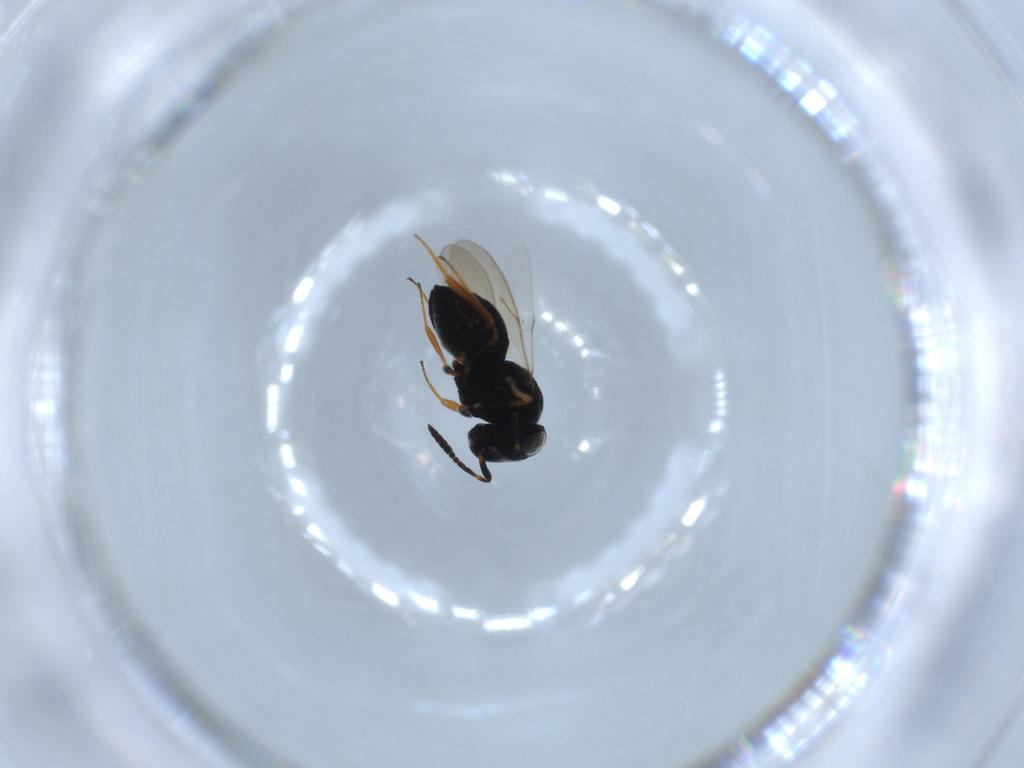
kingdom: Animalia
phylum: Arthropoda
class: Insecta
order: Hymenoptera
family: Scelionidae
